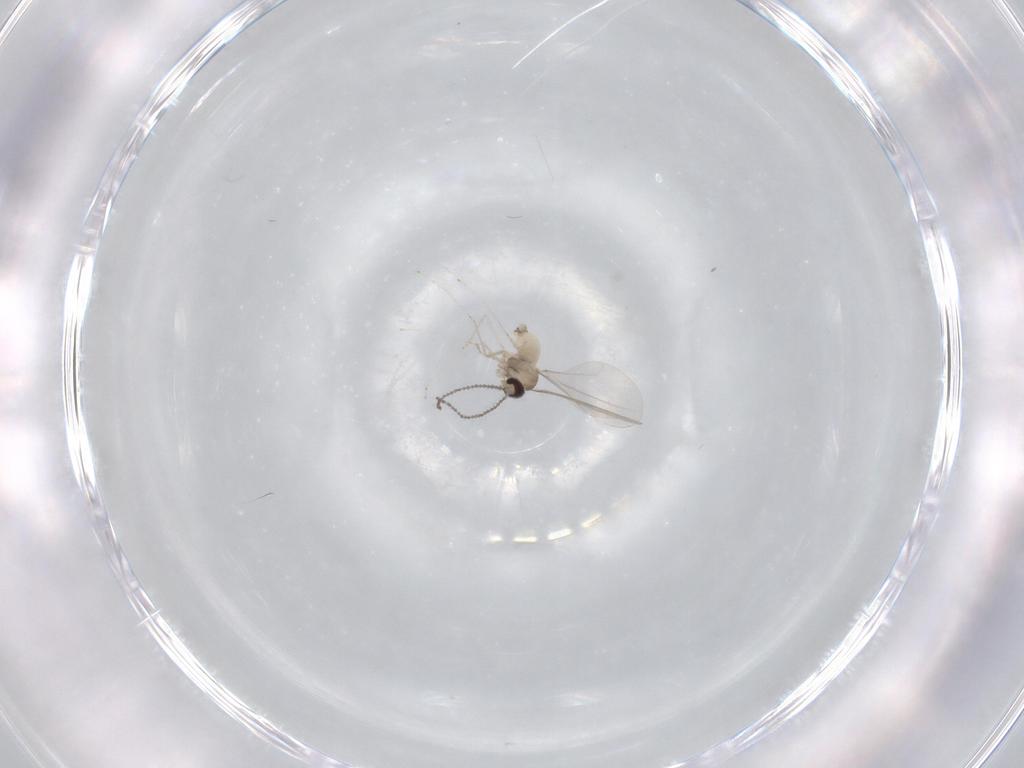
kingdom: Animalia
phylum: Arthropoda
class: Insecta
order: Diptera
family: Cecidomyiidae
